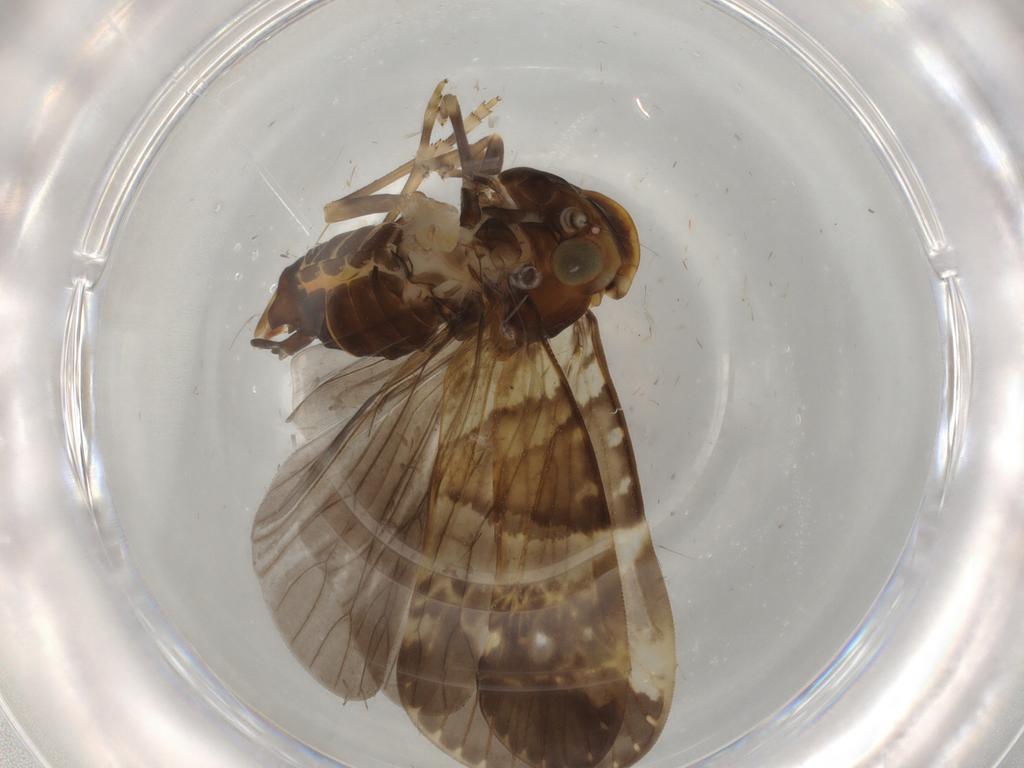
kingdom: Animalia
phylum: Arthropoda
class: Insecta
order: Hemiptera
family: Cixiidae
